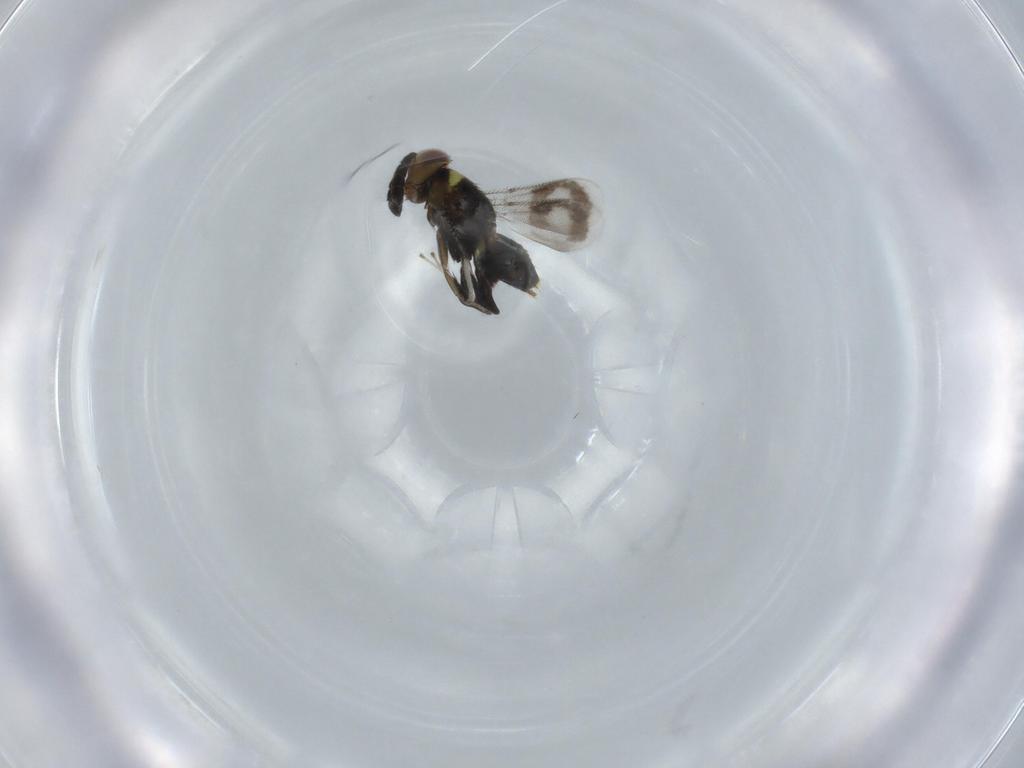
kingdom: Animalia
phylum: Arthropoda
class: Insecta
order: Hymenoptera
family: Aphelinidae
